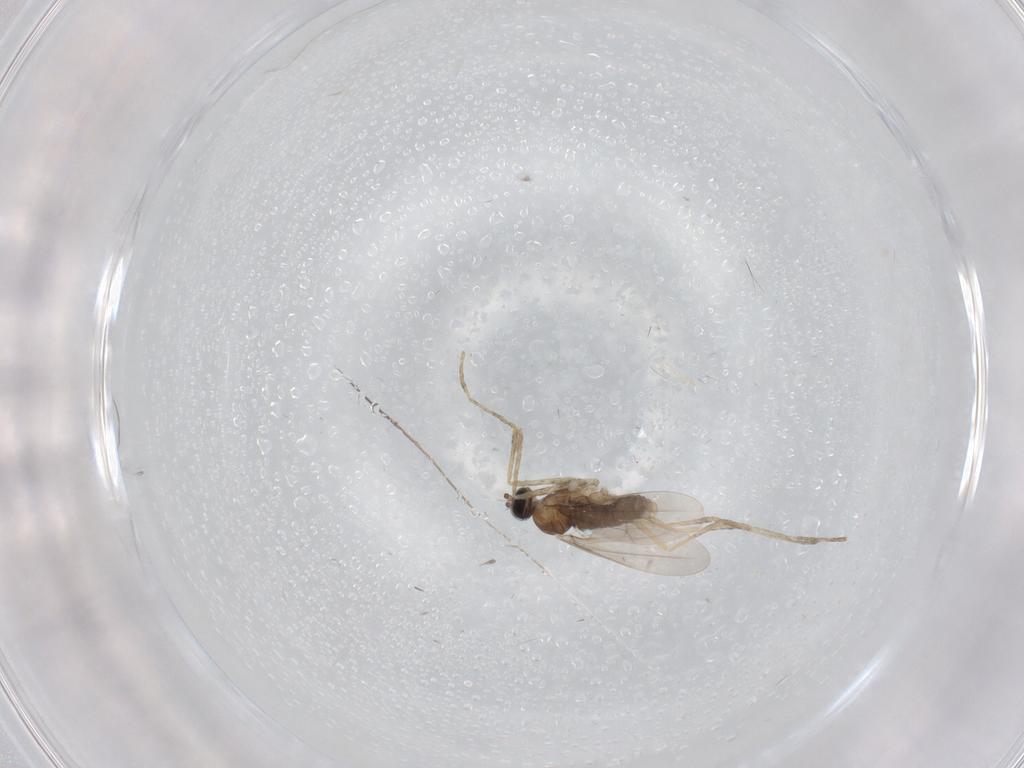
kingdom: Animalia
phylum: Arthropoda
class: Insecta
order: Diptera
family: Cecidomyiidae
